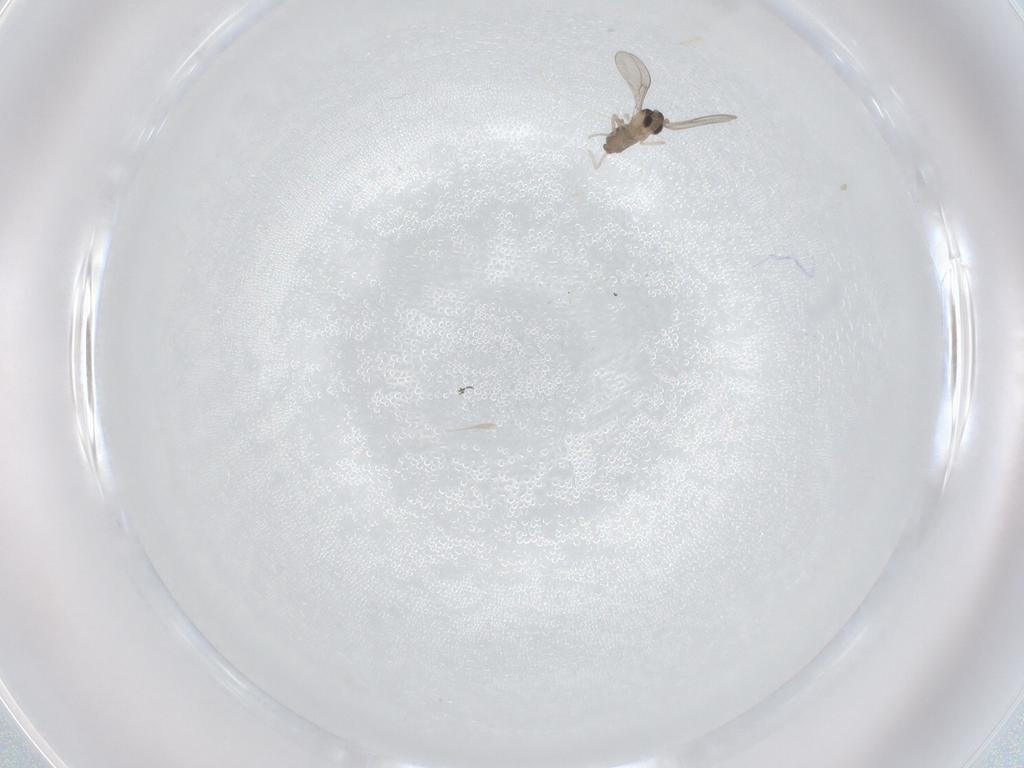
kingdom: Animalia
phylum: Arthropoda
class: Insecta
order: Diptera
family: Cecidomyiidae
